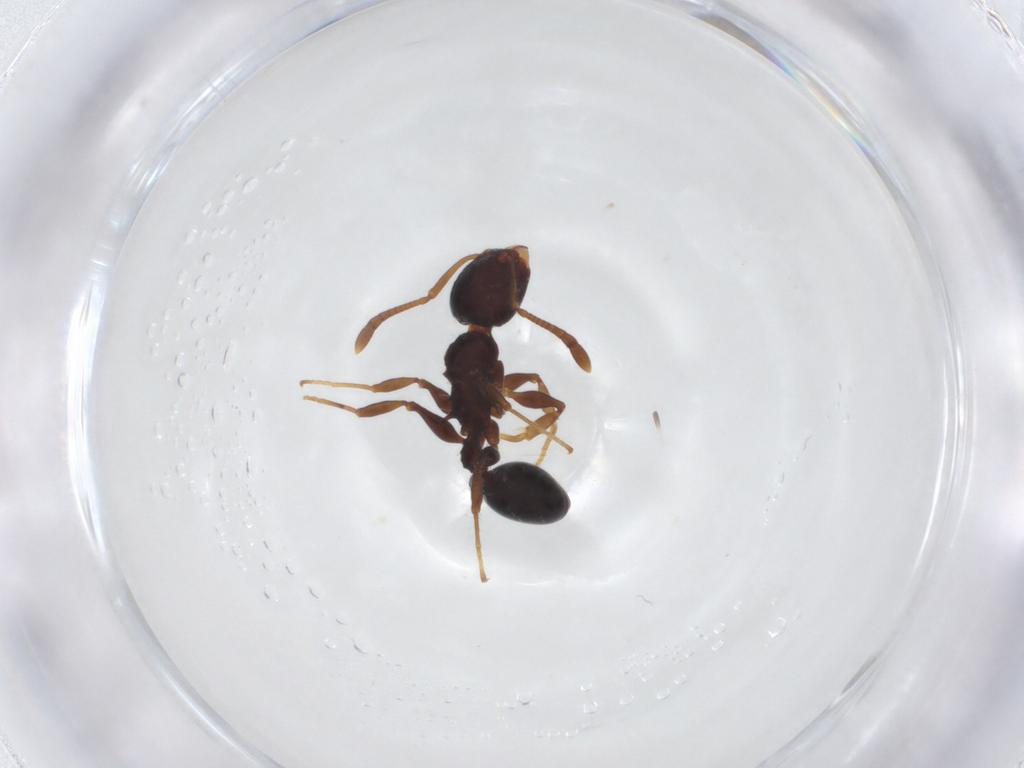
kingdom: Animalia
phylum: Arthropoda
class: Insecta
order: Hymenoptera
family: Formicidae
